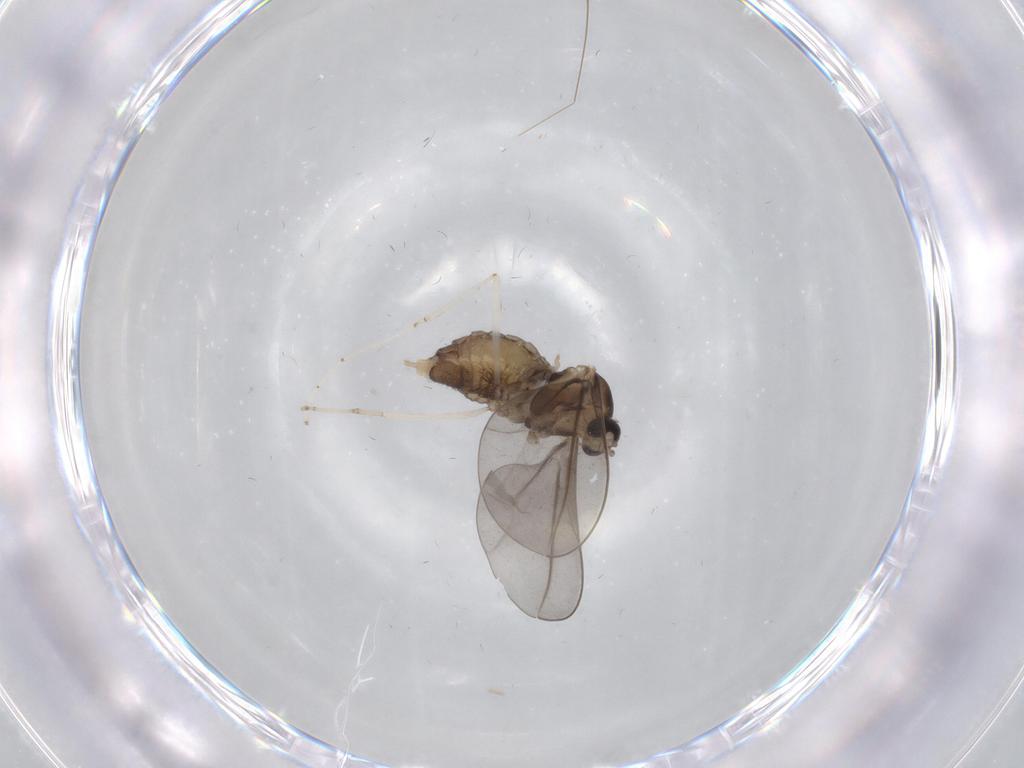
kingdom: Animalia
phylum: Arthropoda
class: Insecta
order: Diptera
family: Cecidomyiidae
